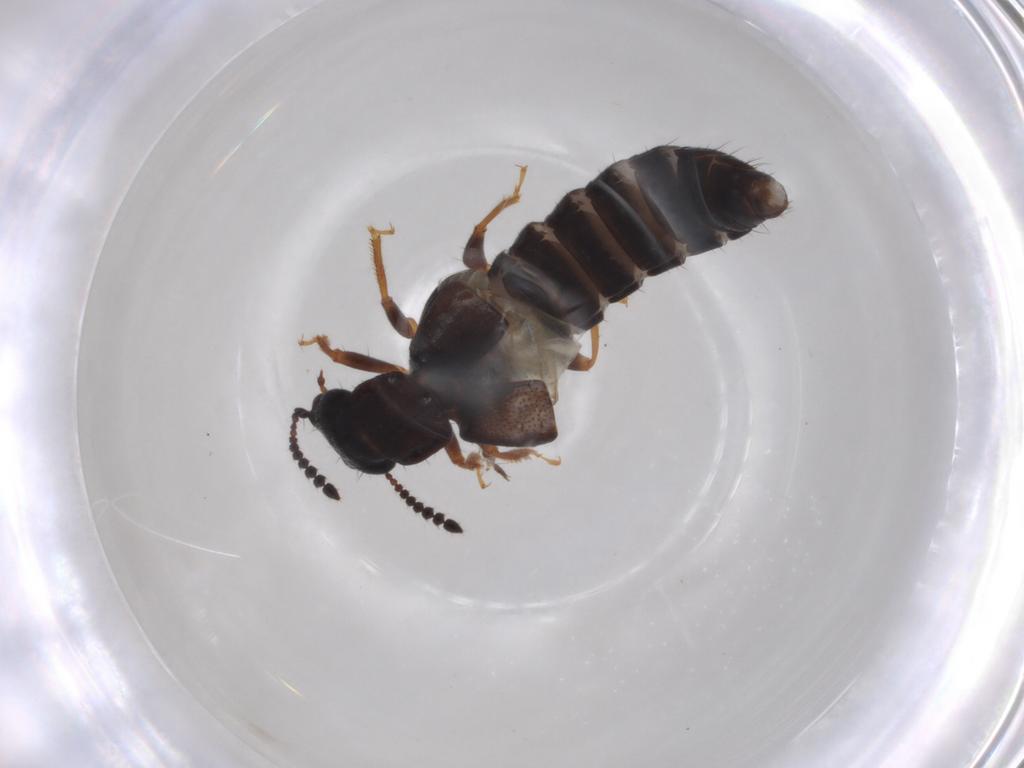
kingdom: Animalia
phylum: Arthropoda
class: Insecta
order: Coleoptera
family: Staphylinidae
